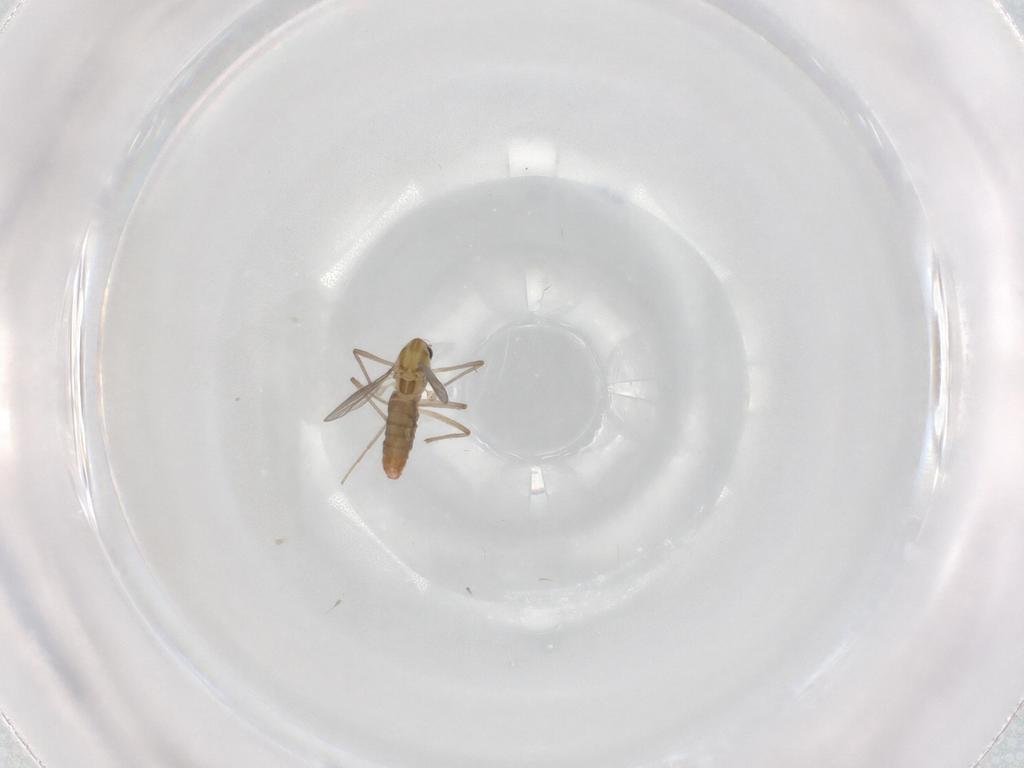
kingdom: Animalia
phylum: Arthropoda
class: Insecta
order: Diptera
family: Chironomidae
